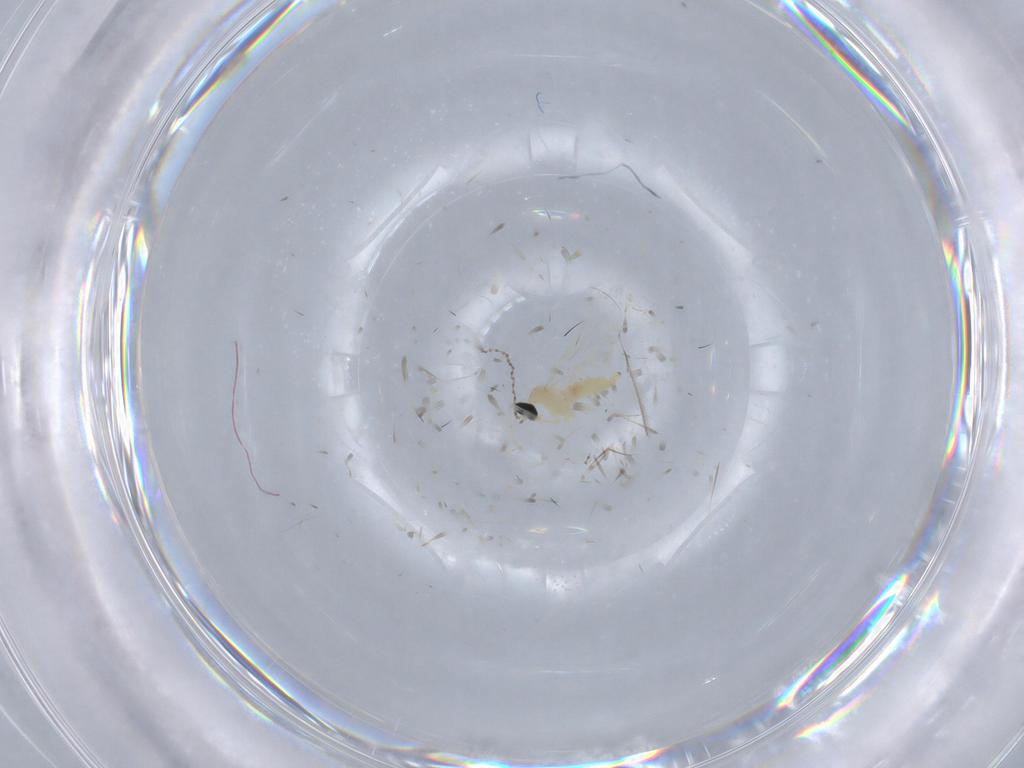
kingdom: Animalia
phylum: Arthropoda
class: Insecta
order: Diptera
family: Cecidomyiidae
